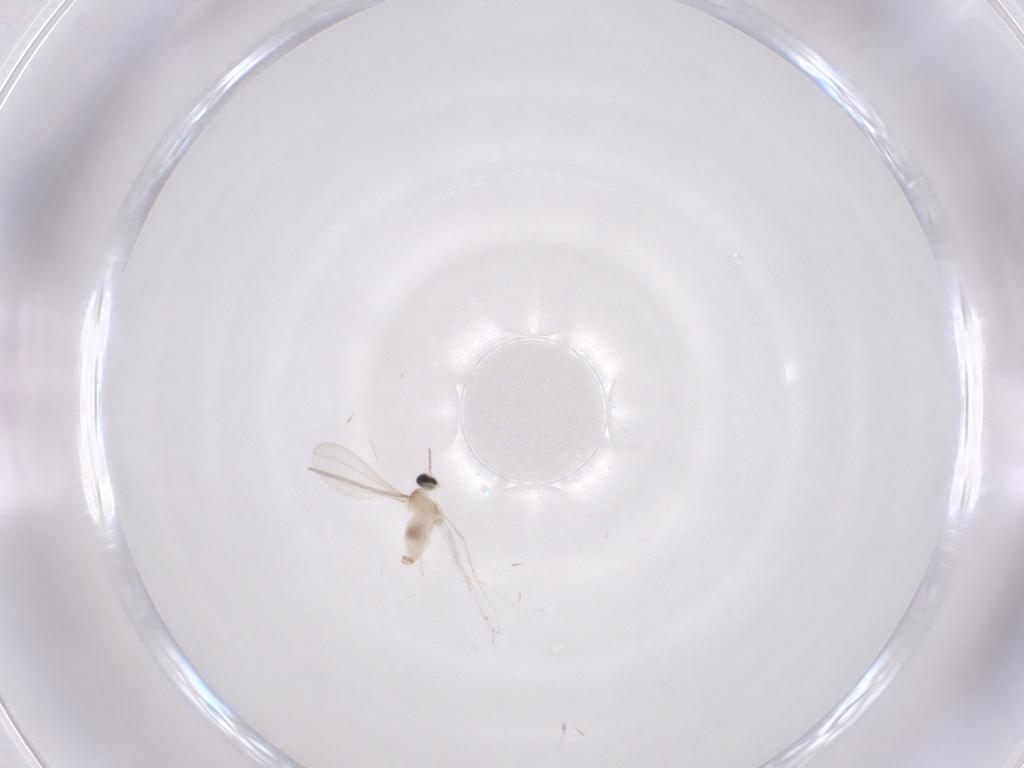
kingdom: Animalia
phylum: Arthropoda
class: Insecta
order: Diptera
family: Cecidomyiidae
